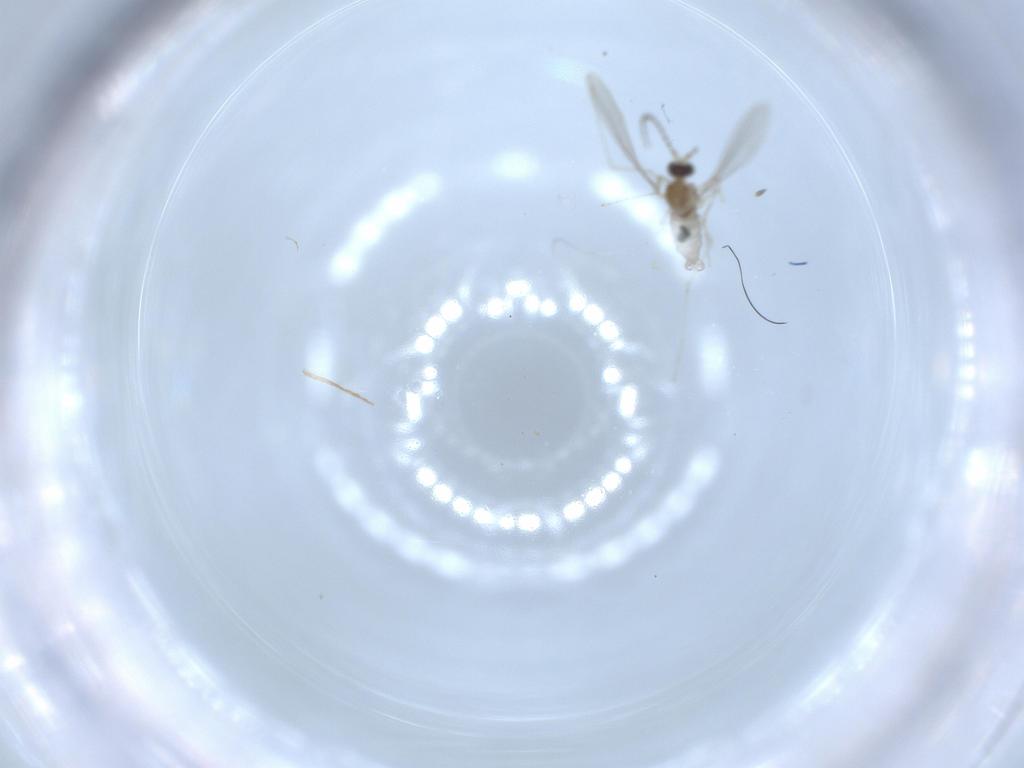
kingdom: Animalia
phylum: Arthropoda
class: Insecta
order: Diptera
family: Cecidomyiidae
